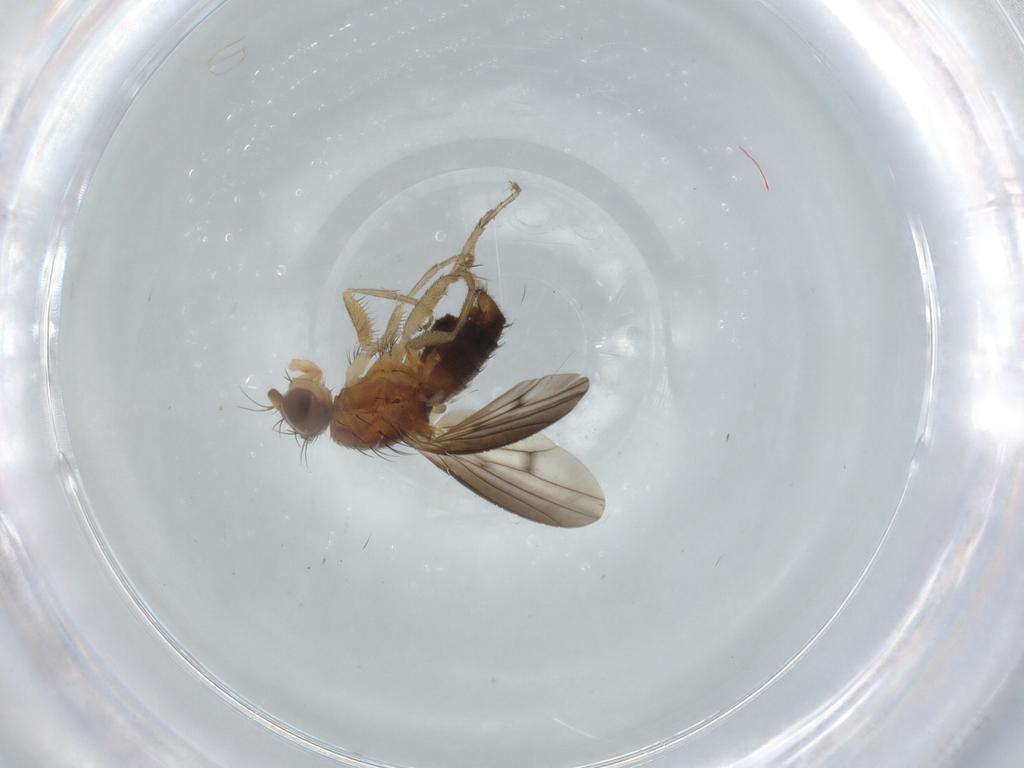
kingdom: Animalia
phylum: Arthropoda
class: Insecta
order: Diptera
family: Heleomyzidae
